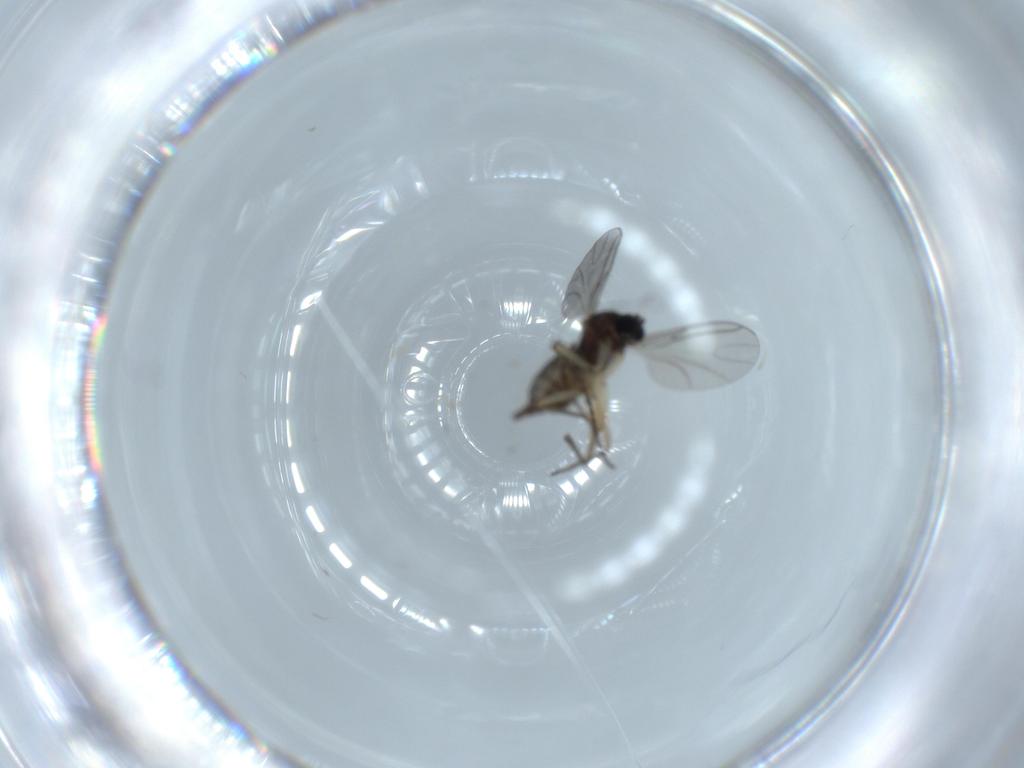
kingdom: Animalia
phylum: Arthropoda
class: Insecta
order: Diptera
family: Sciaridae
